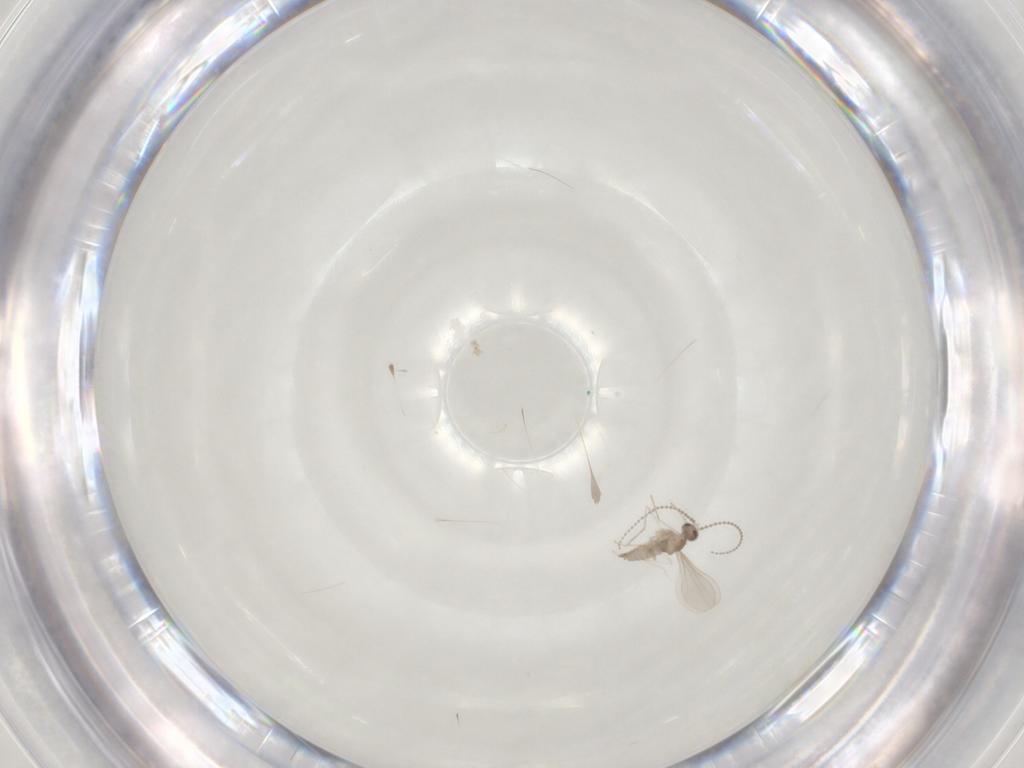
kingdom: Animalia
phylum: Arthropoda
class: Insecta
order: Diptera
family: Cecidomyiidae
